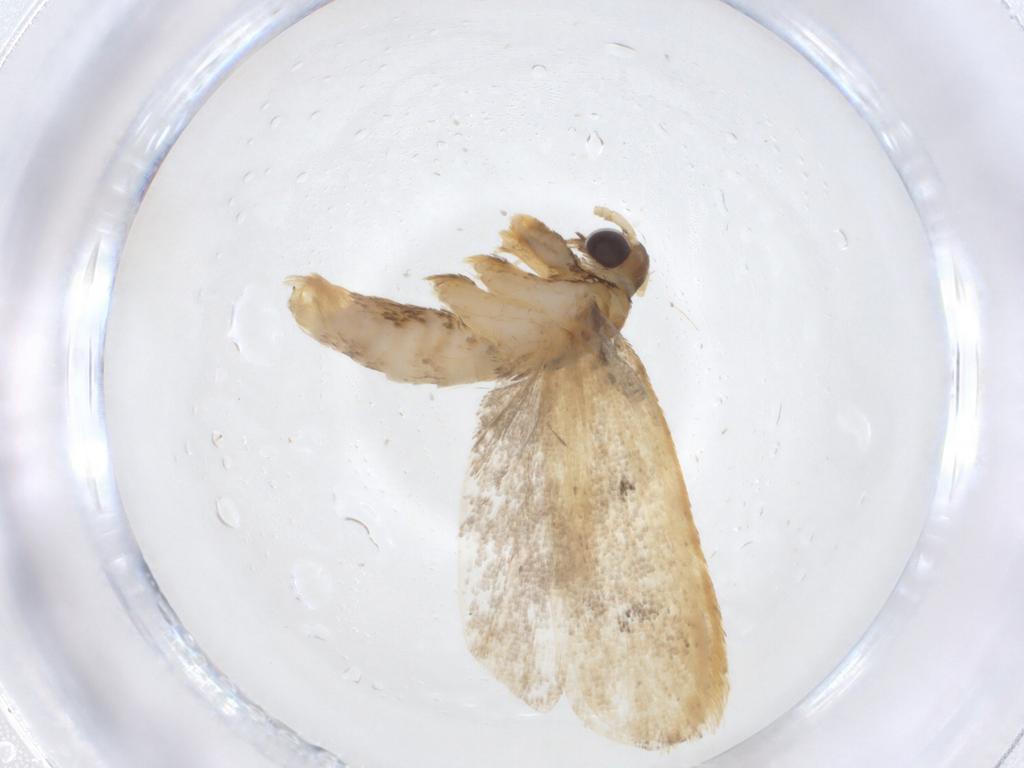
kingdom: Animalia
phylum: Arthropoda
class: Insecta
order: Lepidoptera
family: Lecithoceridae
